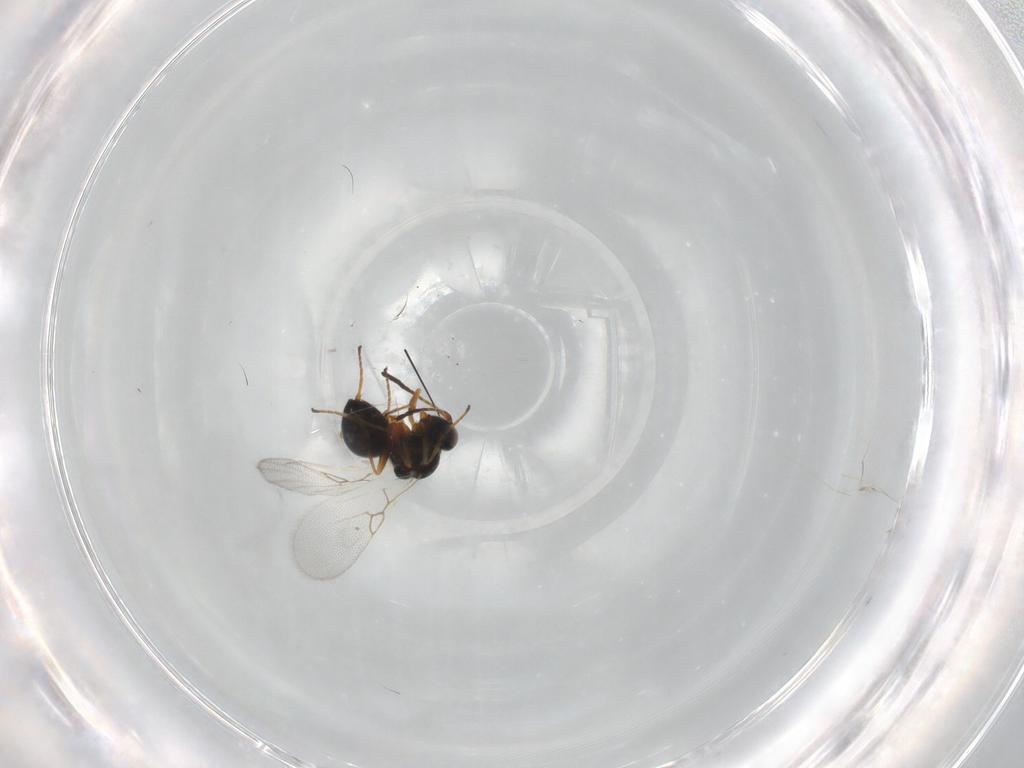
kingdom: Animalia
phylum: Arthropoda
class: Insecta
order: Hymenoptera
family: Figitidae
